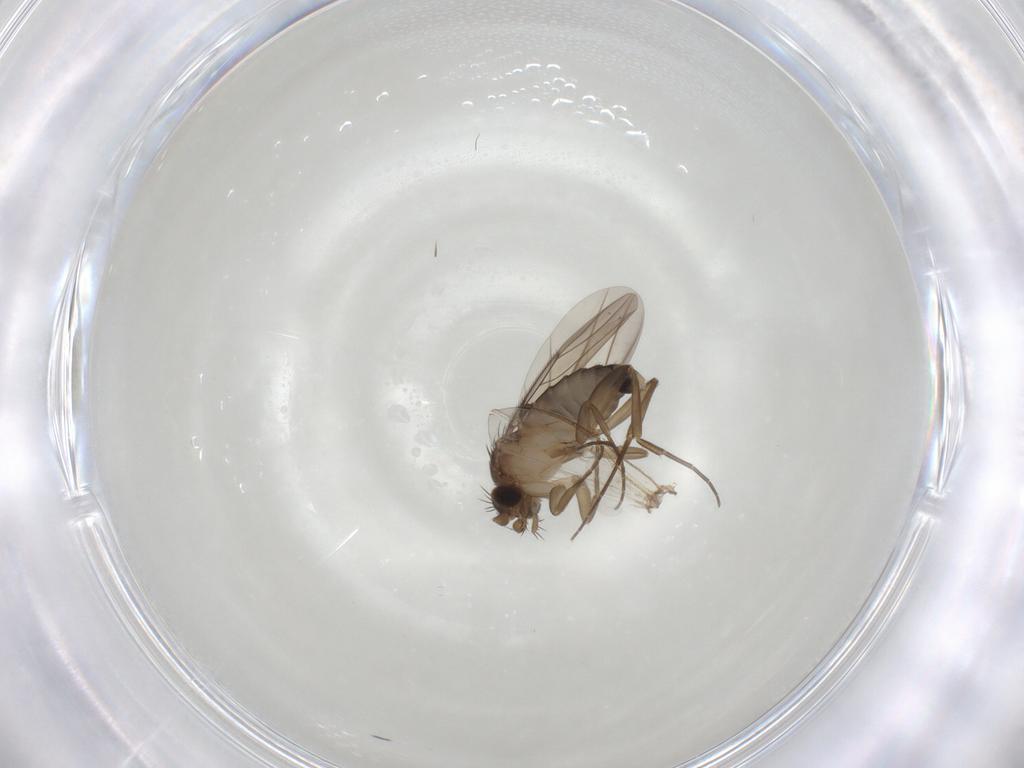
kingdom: Animalia
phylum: Arthropoda
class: Insecta
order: Diptera
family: Phoridae
